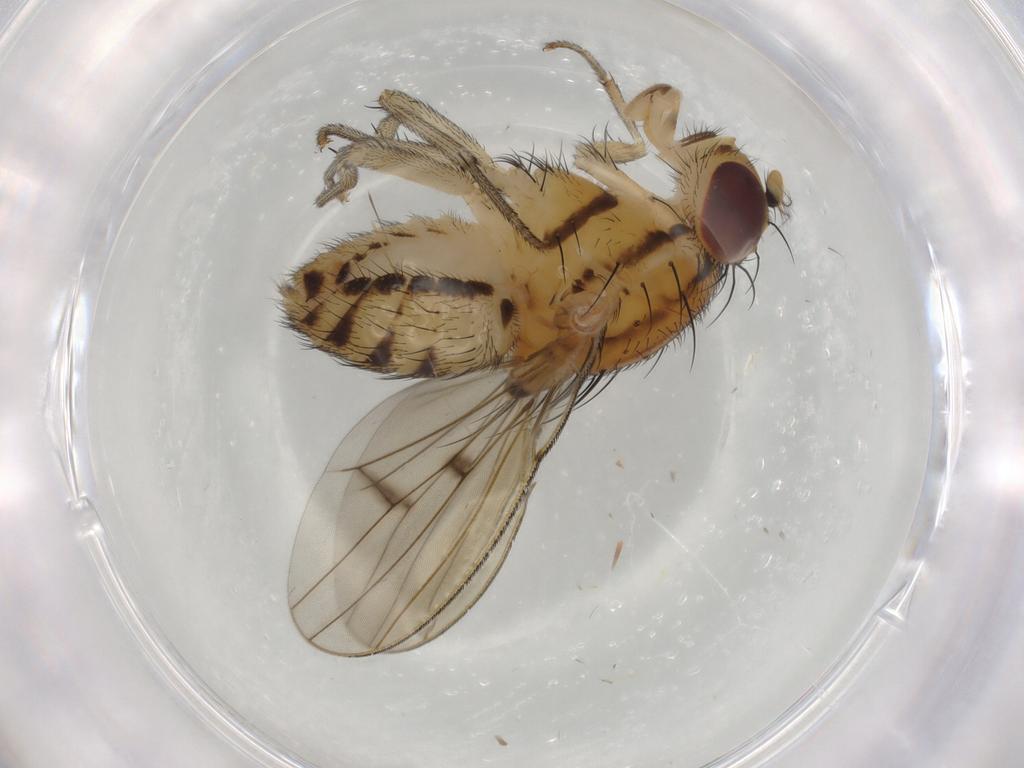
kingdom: Animalia
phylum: Arthropoda
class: Insecta
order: Diptera
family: Lauxaniidae
